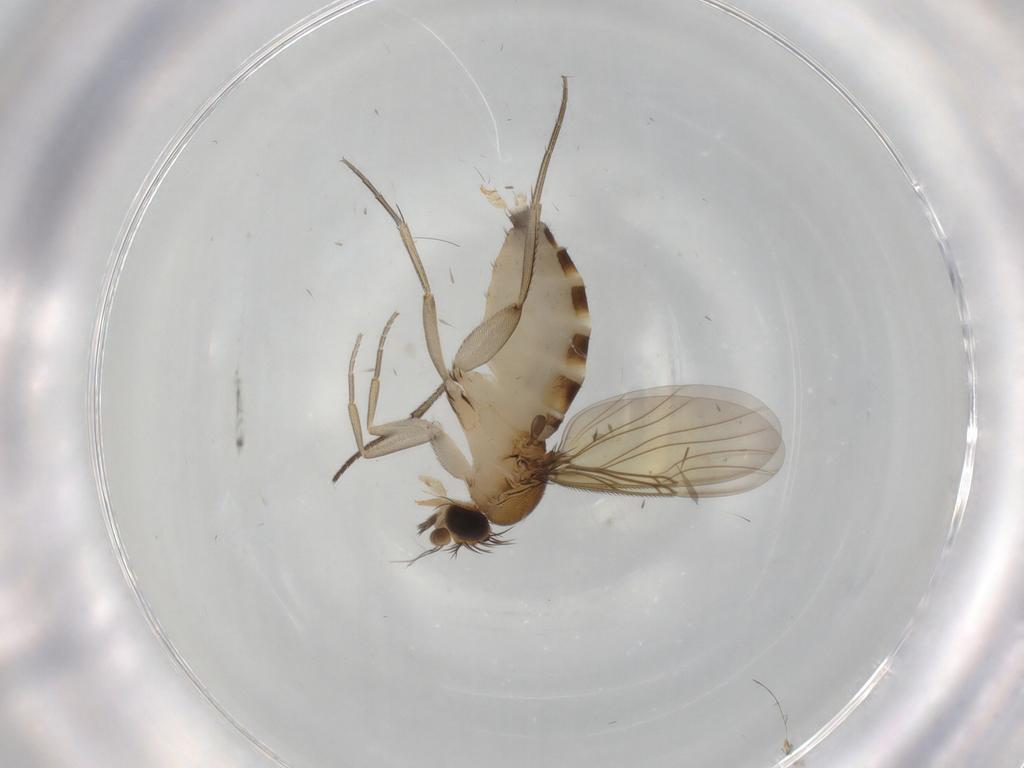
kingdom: Animalia
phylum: Arthropoda
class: Insecta
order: Diptera
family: Phoridae
